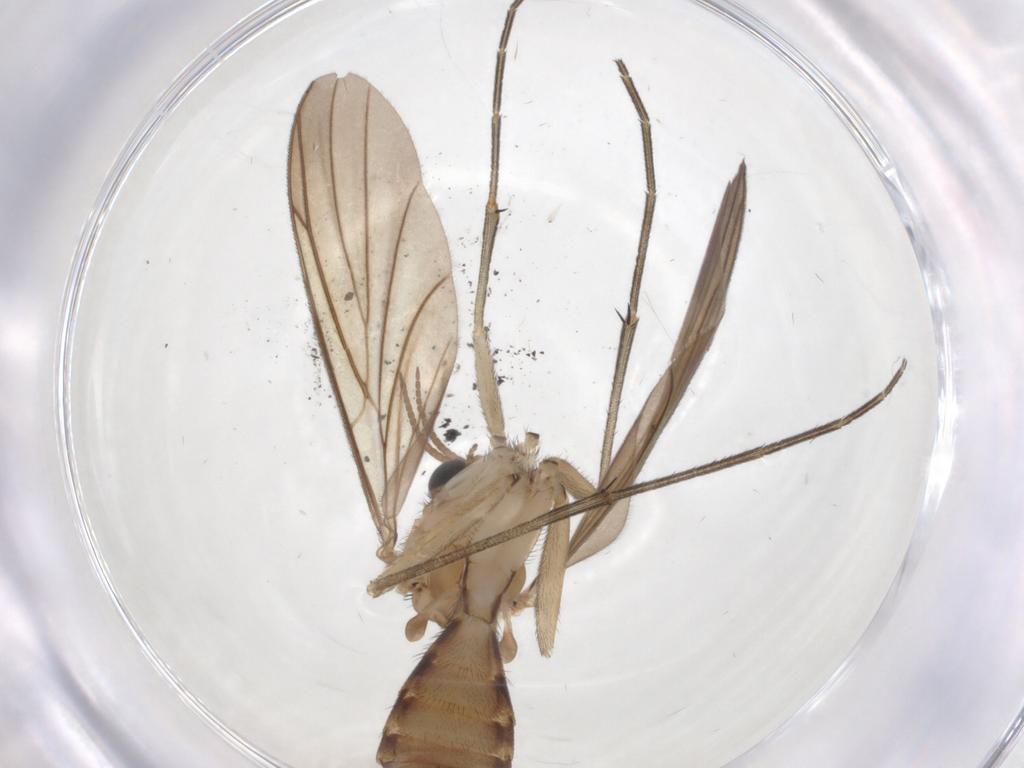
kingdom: Animalia
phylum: Arthropoda
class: Insecta
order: Diptera
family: Keroplatidae
